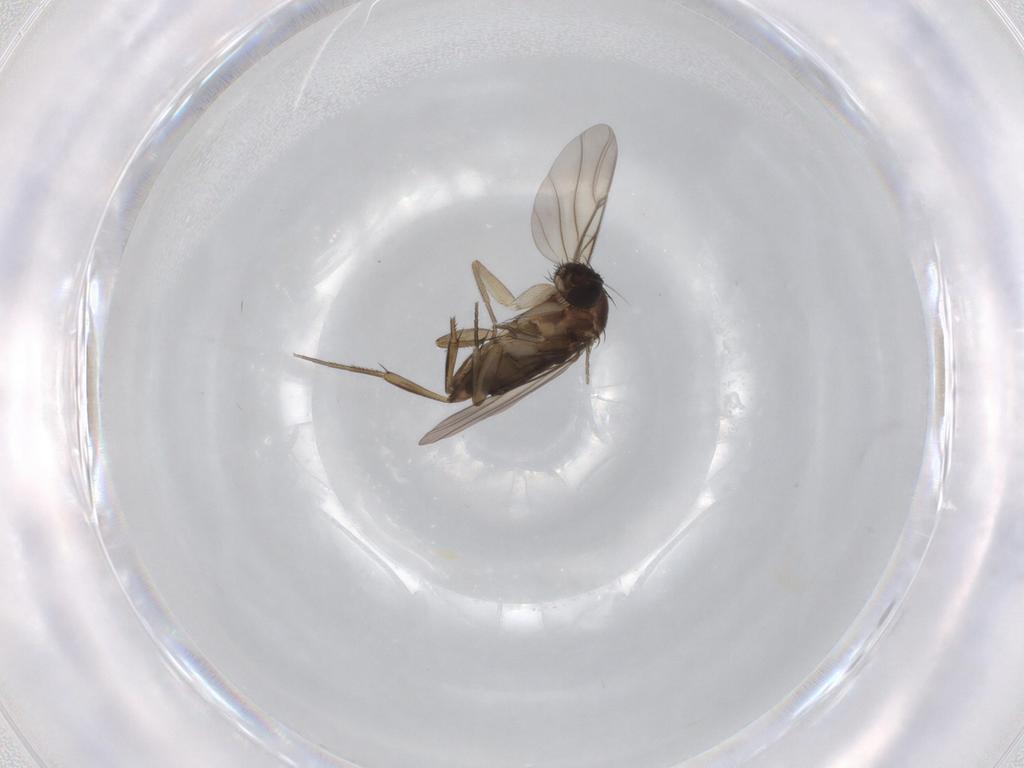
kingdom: Animalia
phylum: Arthropoda
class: Insecta
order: Diptera
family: Phoridae
